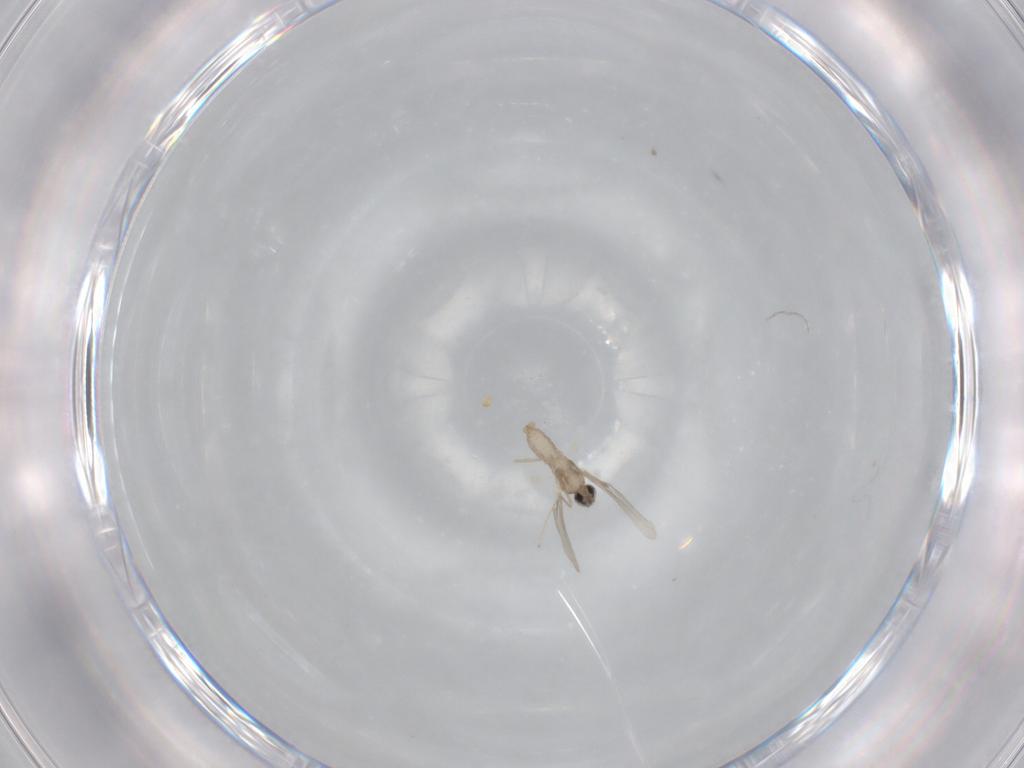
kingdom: Animalia
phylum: Arthropoda
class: Insecta
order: Diptera
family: Cecidomyiidae
